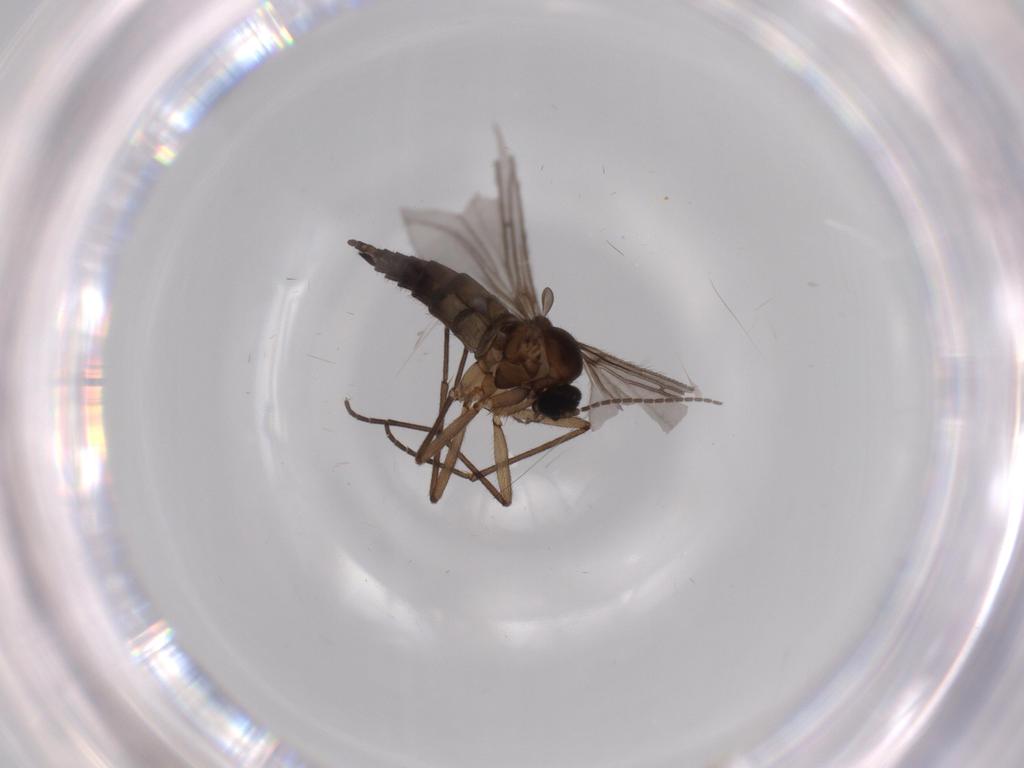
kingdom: Animalia
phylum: Arthropoda
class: Insecta
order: Diptera
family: Sciaridae
